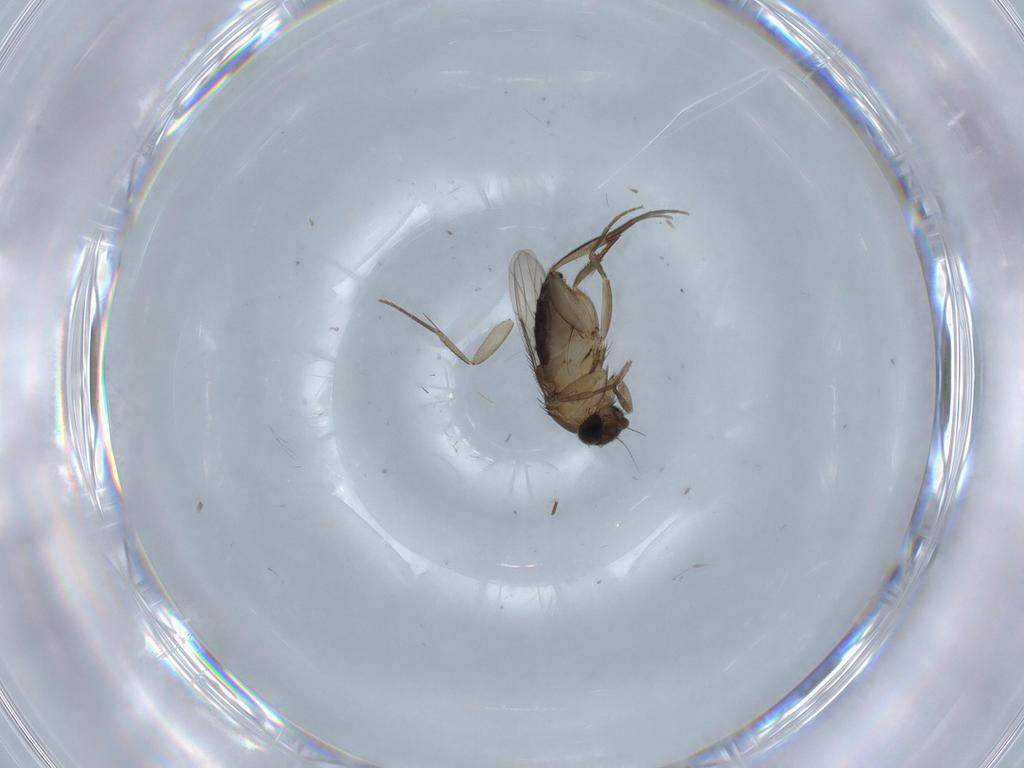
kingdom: Animalia
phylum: Arthropoda
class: Insecta
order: Diptera
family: Phoridae
